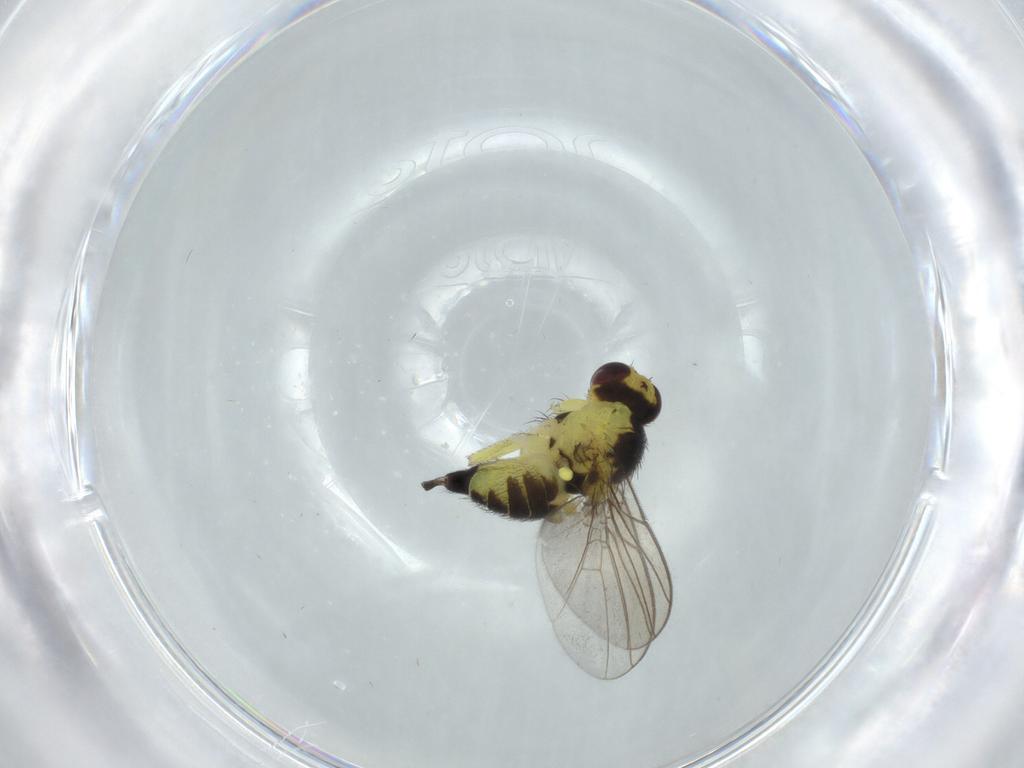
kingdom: Animalia
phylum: Arthropoda
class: Insecta
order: Diptera
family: Agromyzidae
